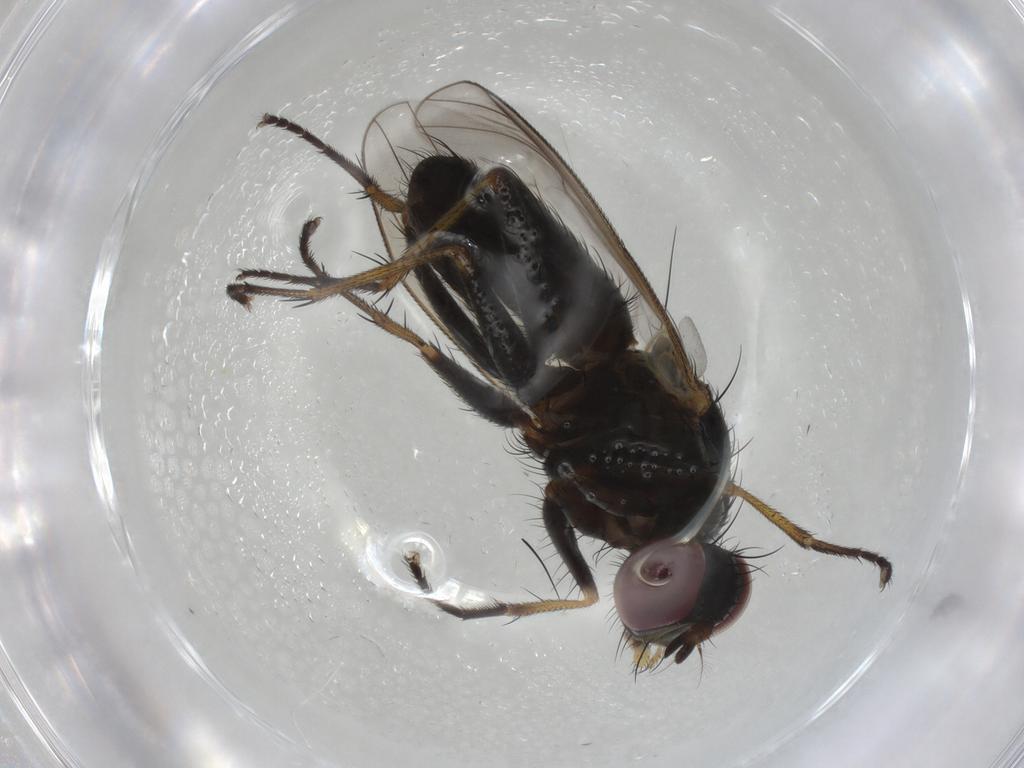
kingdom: Animalia
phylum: Arthropoda
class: Insecta
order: Diptera
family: Muscidae
